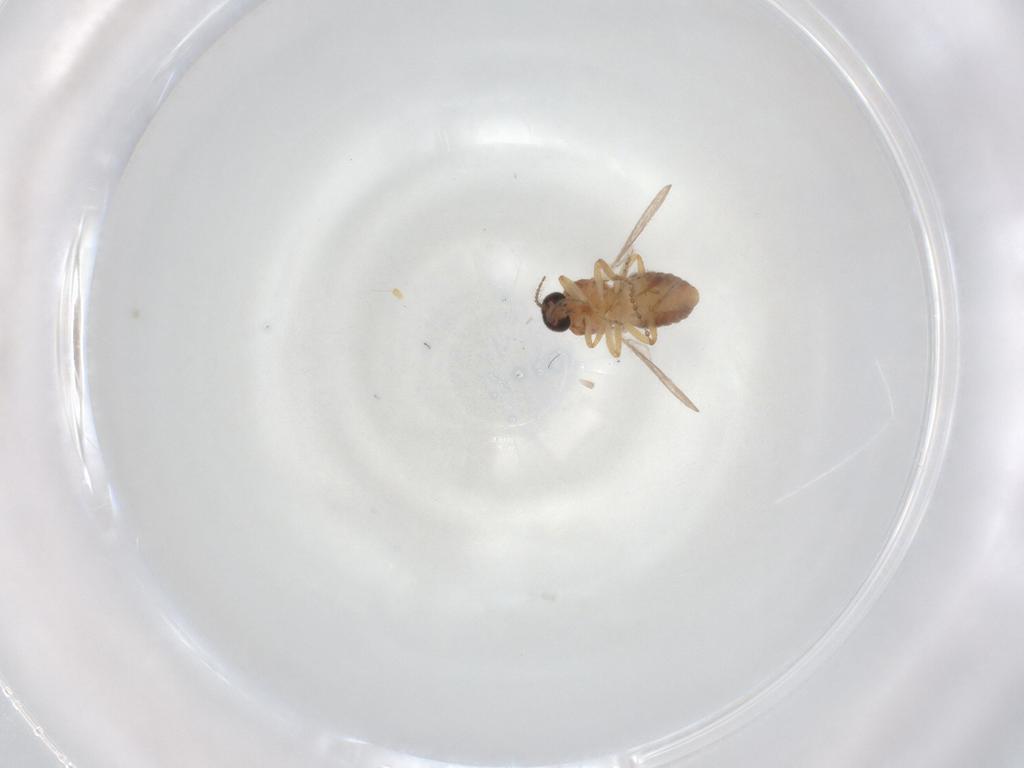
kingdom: Animalia
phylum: Arthropoda
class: Insecta
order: Diptera
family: Ceratopogonidae
